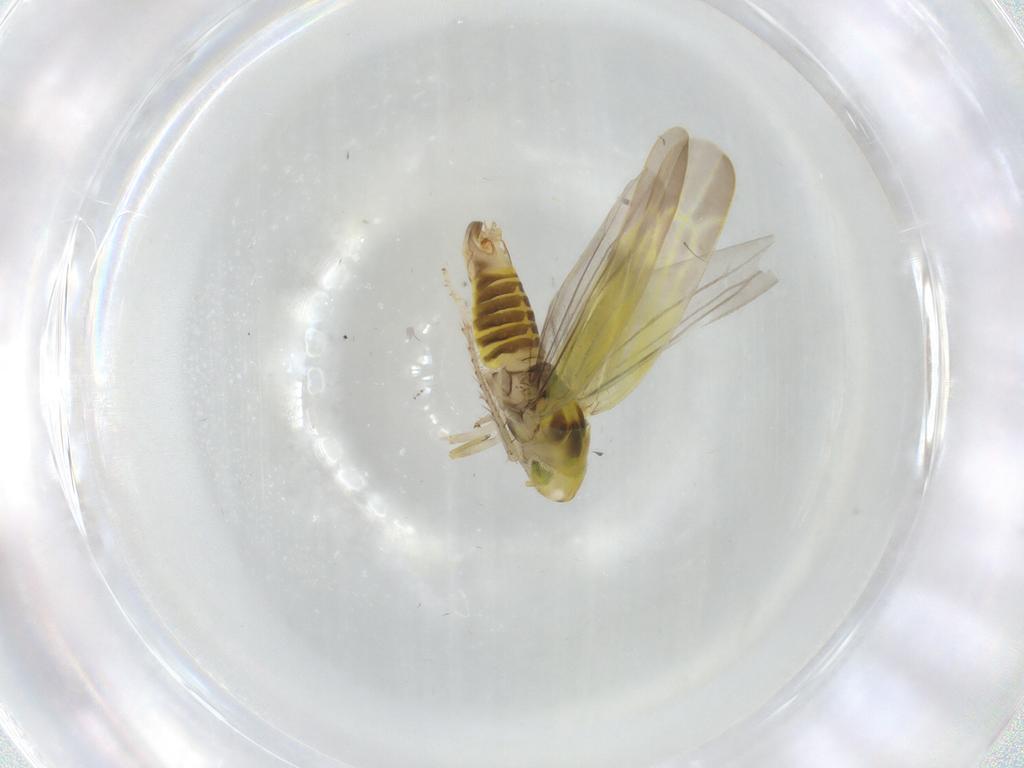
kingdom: Animalia
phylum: Arthropoda
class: Insecta
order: Hemiptera
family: Cicadellidae
